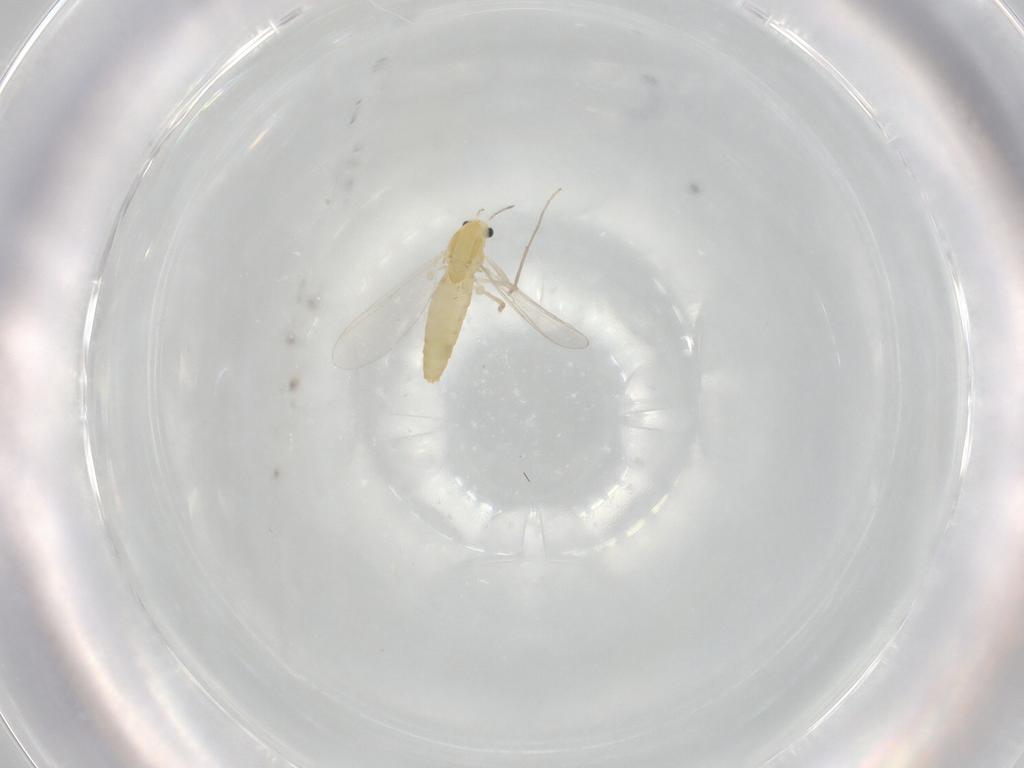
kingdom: Animalia
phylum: Arthropoda
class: Insecta
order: Diptera
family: Chironomidae
